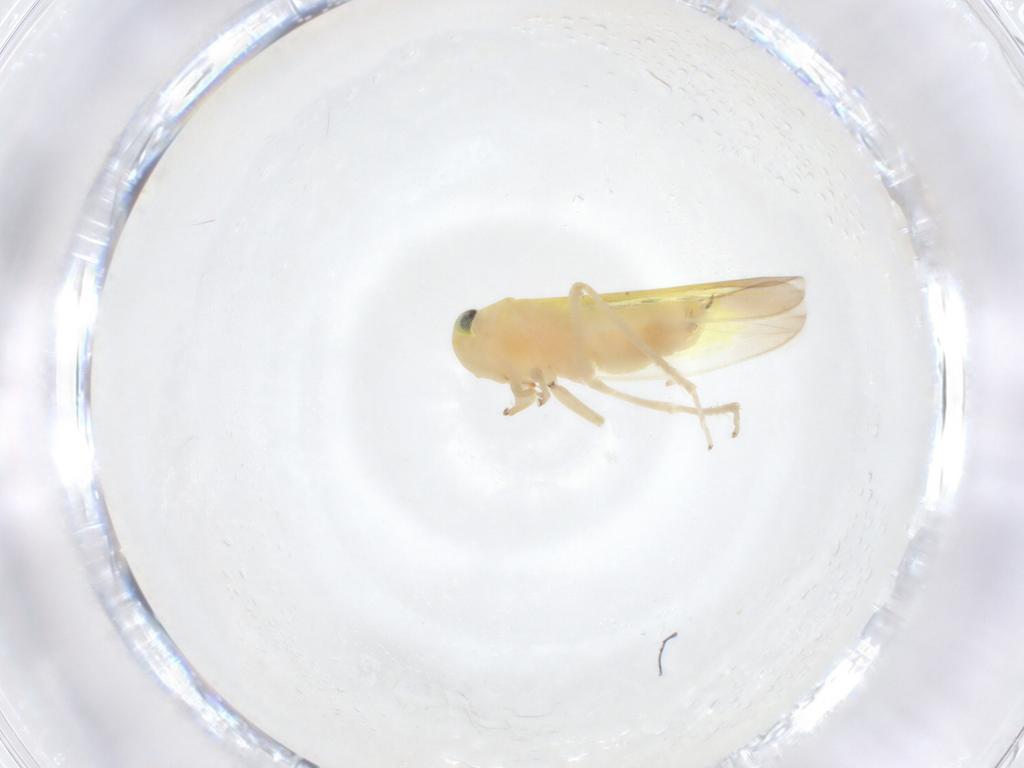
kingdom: Animalia
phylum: Arthropoda
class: Insecta
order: Hemiptera
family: Cicadellidae
